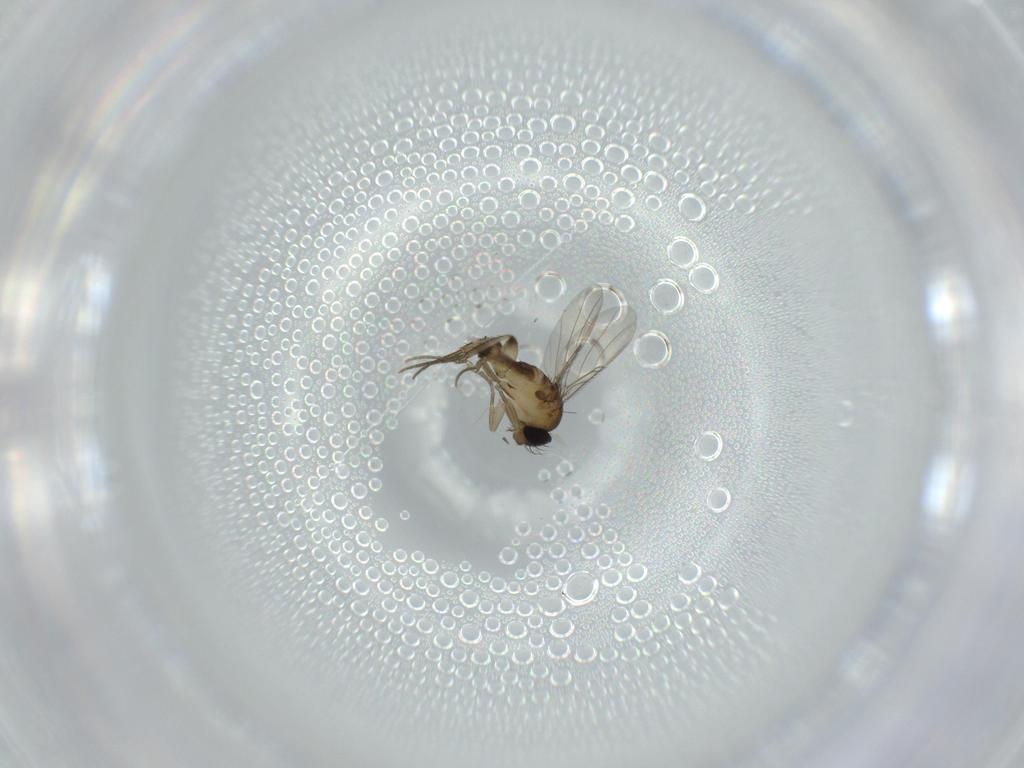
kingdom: Animalia
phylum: Arthropoda
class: Insecta
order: Diptera
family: Phoridae
